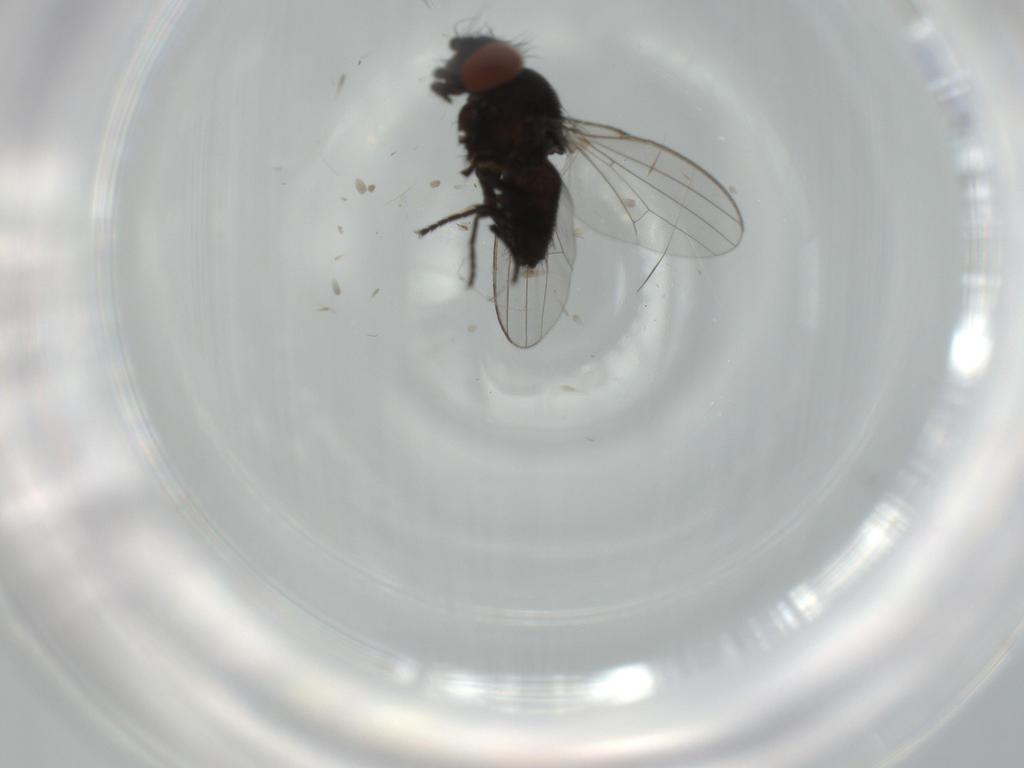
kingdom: Animalia
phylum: Arthropoda
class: Insecta
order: Diptera
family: Milichiidae
